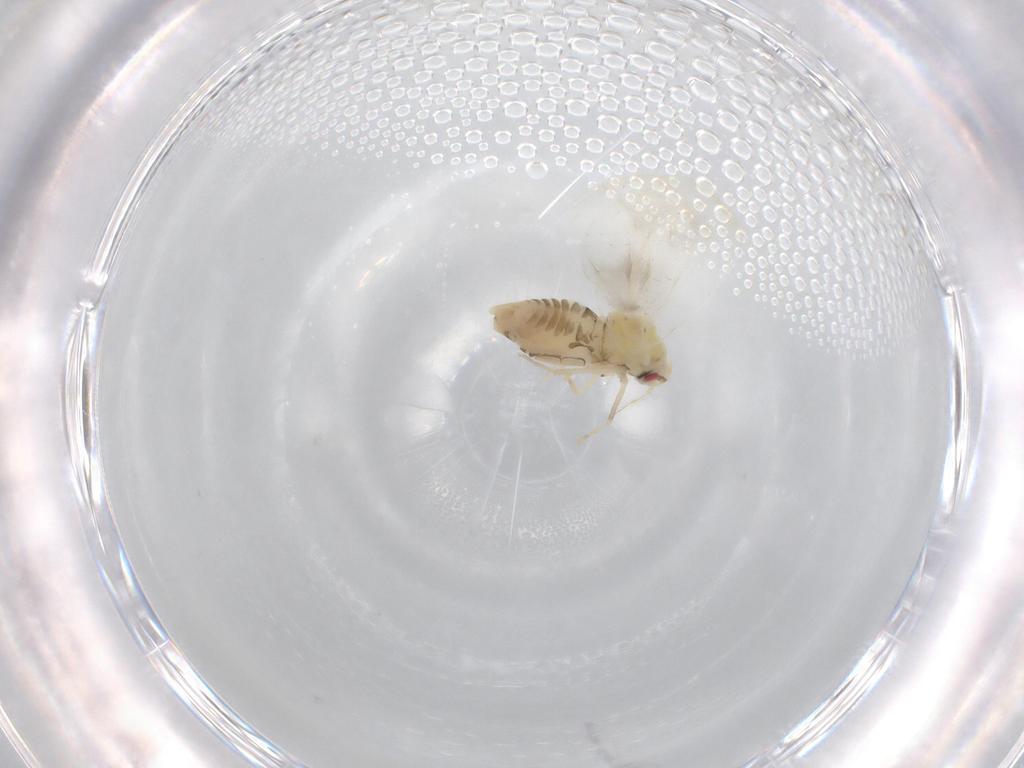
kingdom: Animalia
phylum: Arthropoda
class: Insecta
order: Hemiptera
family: Aleyrodidae
